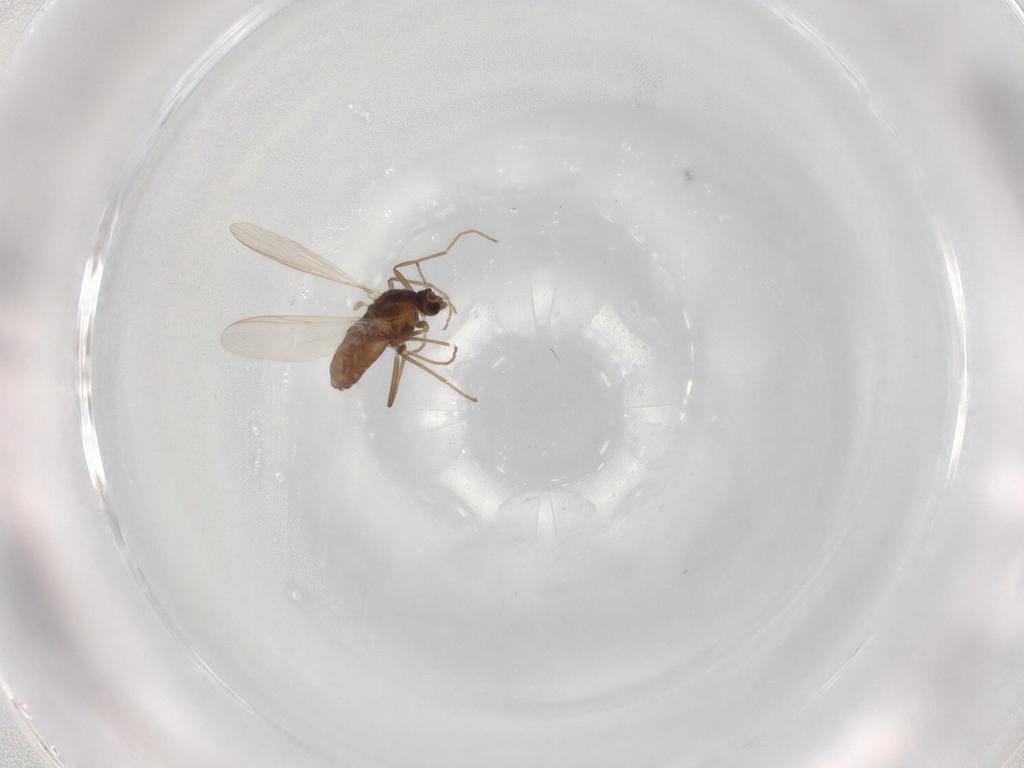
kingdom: Animalia
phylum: Arthropoda
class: Insecta
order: Diptera
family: Chironomidae
